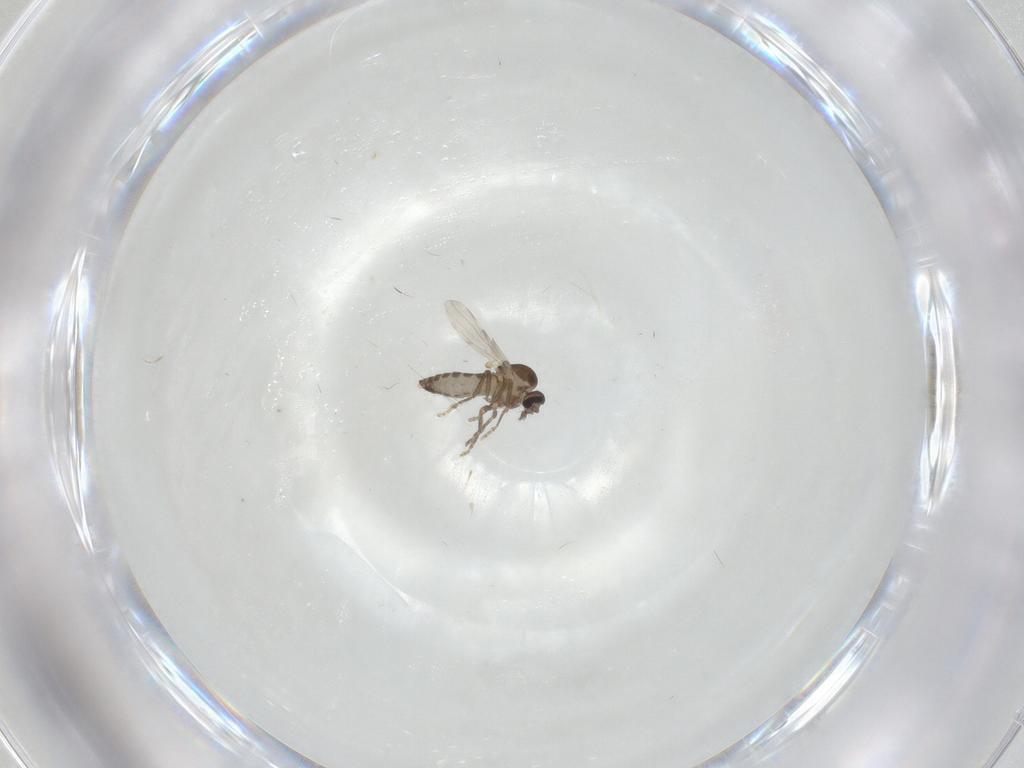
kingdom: Animalia
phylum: Arthropoda
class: Insecta
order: Diptera
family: Ceratopogonidae
